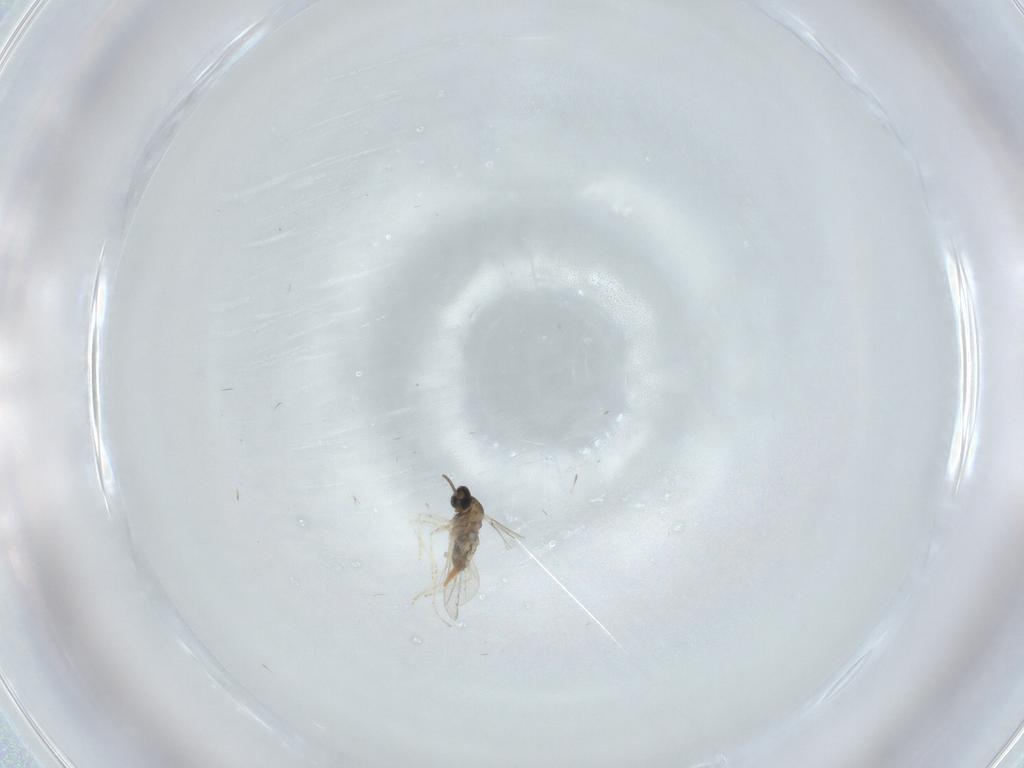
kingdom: Animalia
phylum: Arthropoda
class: Insecta
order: Diptera
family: Cecidomyiidae
